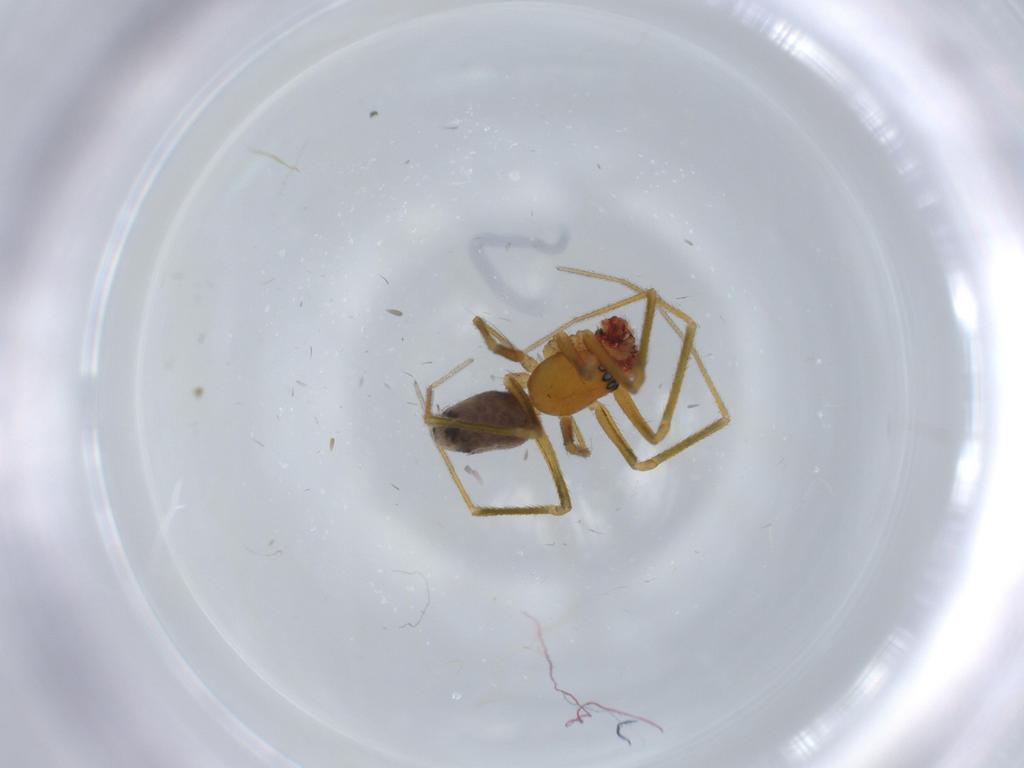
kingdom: Animalia
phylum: Arthropoda
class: Arachnida
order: Araneae
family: Linyphiidae
